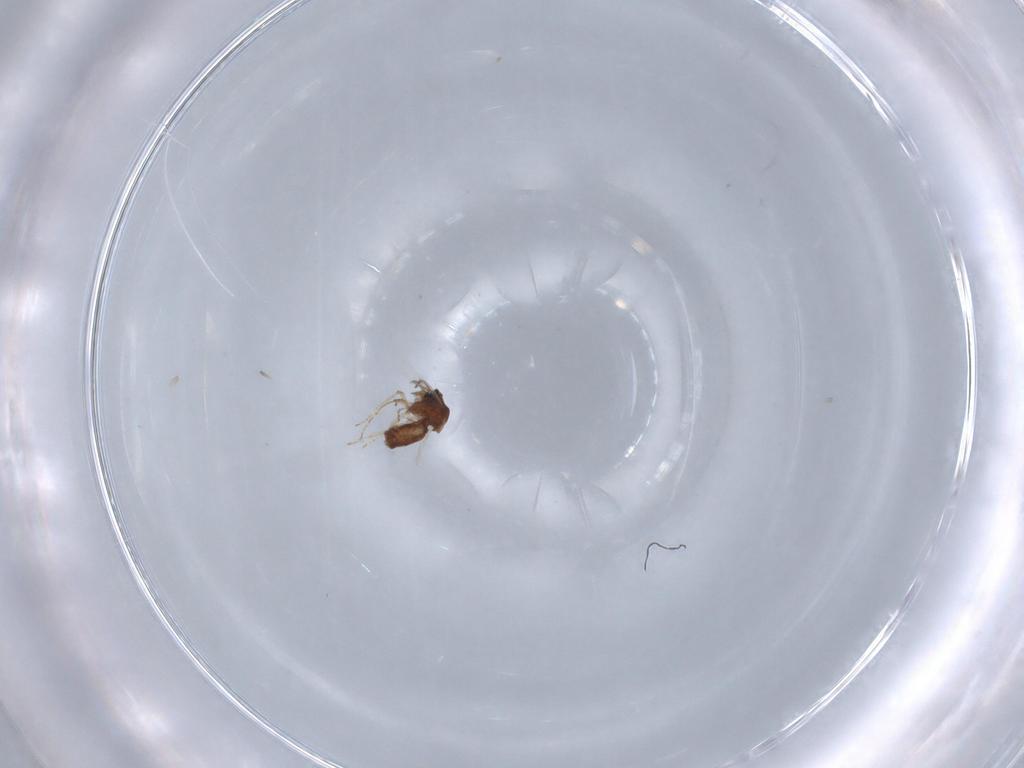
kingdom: Animalia
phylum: Arthropoda
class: Insecta
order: Diptera
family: Ceratopogonidae
